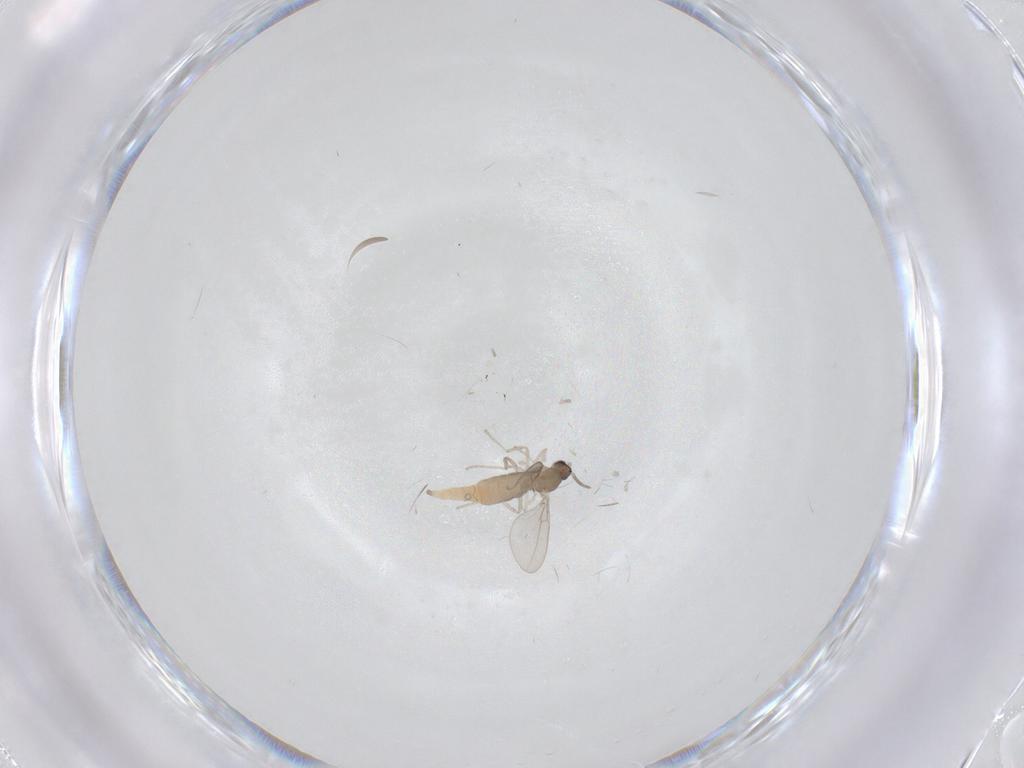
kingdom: Animalia
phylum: Arthropoda
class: Insecta
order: Diptera
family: Cecidomyiidae
